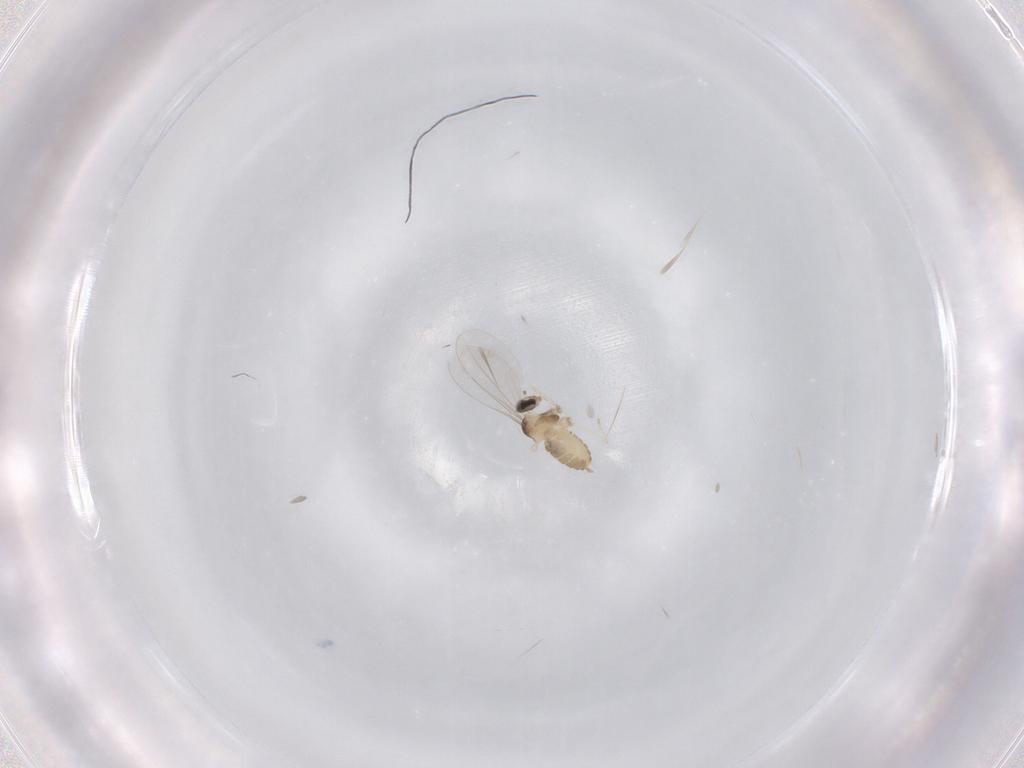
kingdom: Animalia
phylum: Arthropoda
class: Insecta
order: Diptera
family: Cecidomyiidae
